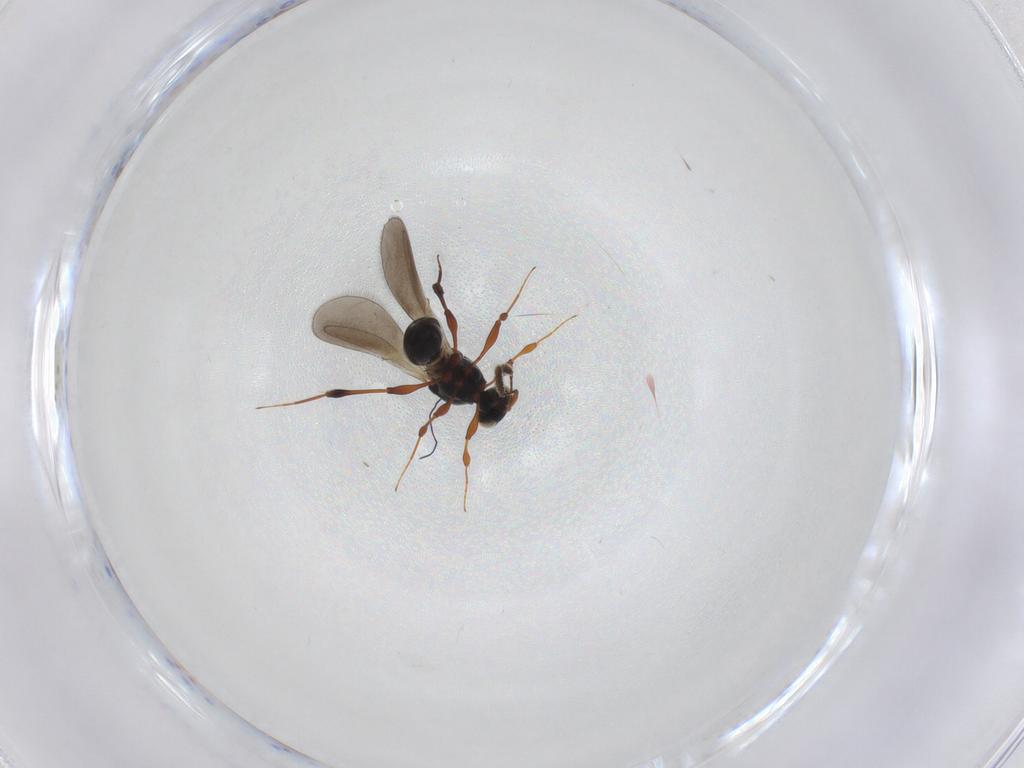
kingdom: Animalia
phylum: Arthropoda
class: Insecta
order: Hymenoptera
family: Platygastridae
